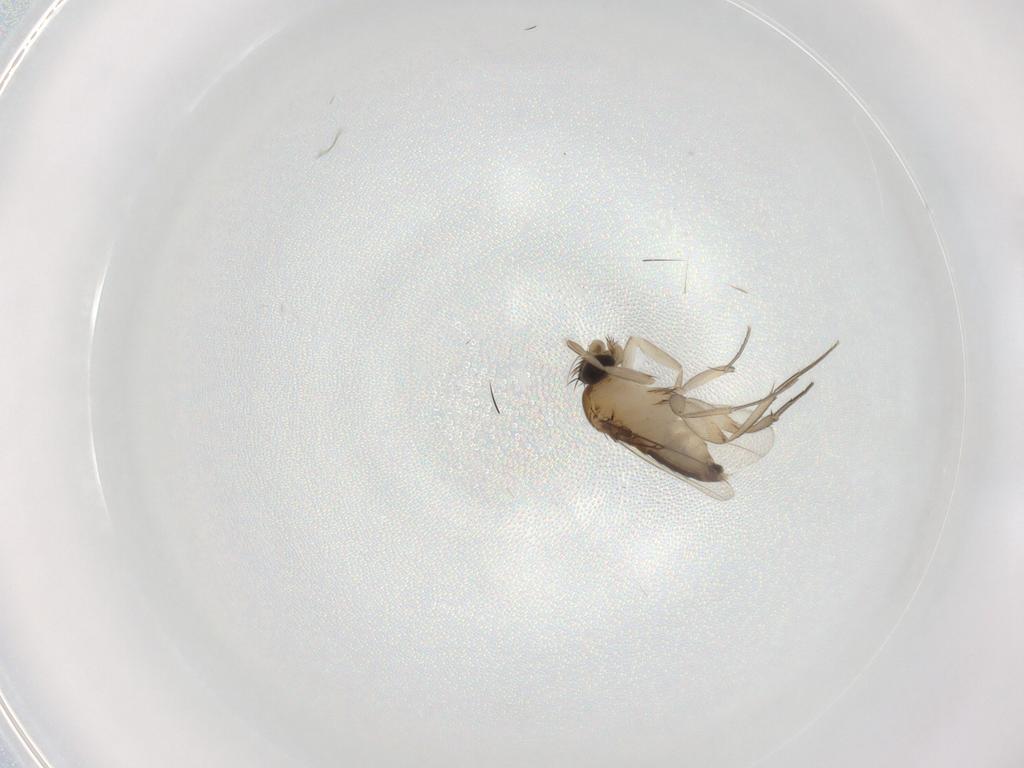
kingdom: Animalia
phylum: Arthropoda
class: Insecta
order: Diptera
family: Phoridae
